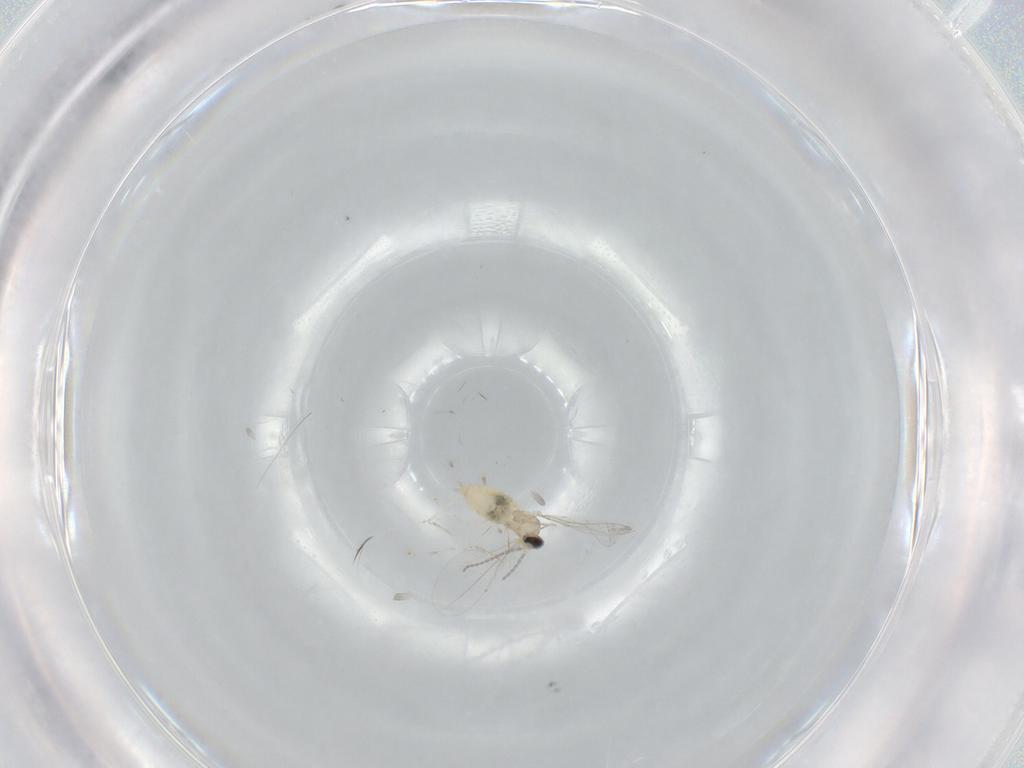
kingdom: Animalia
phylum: Arthropoda
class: Insecta
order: Diptera
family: Cecidomyiidae
